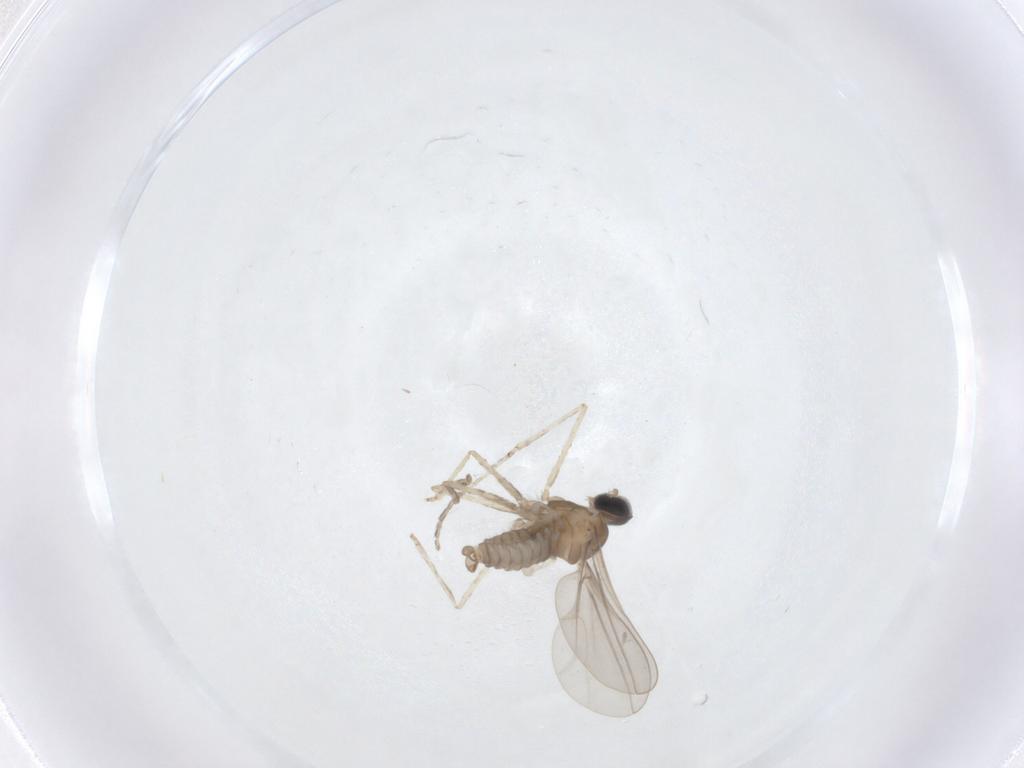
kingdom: Animalia
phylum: Arthropoda
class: Insecta
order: Diptera
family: Cecidomyiidae
